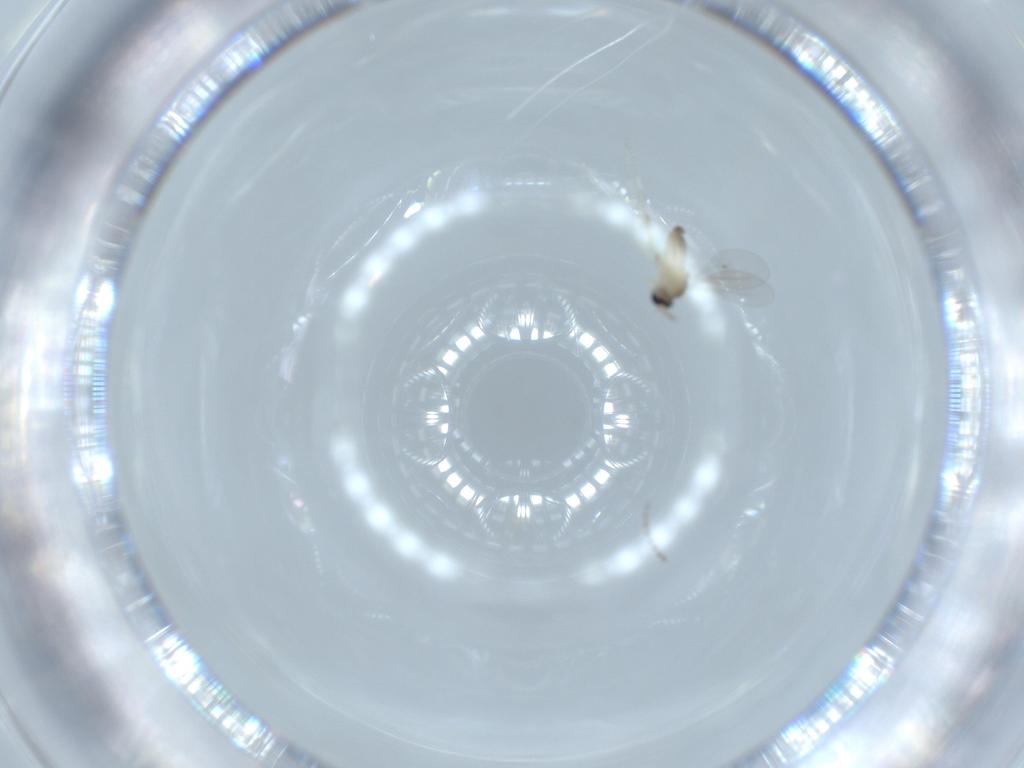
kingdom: Animalia
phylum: Arthropoda
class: Insecta
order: Diptera
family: Cecidomyiidae
